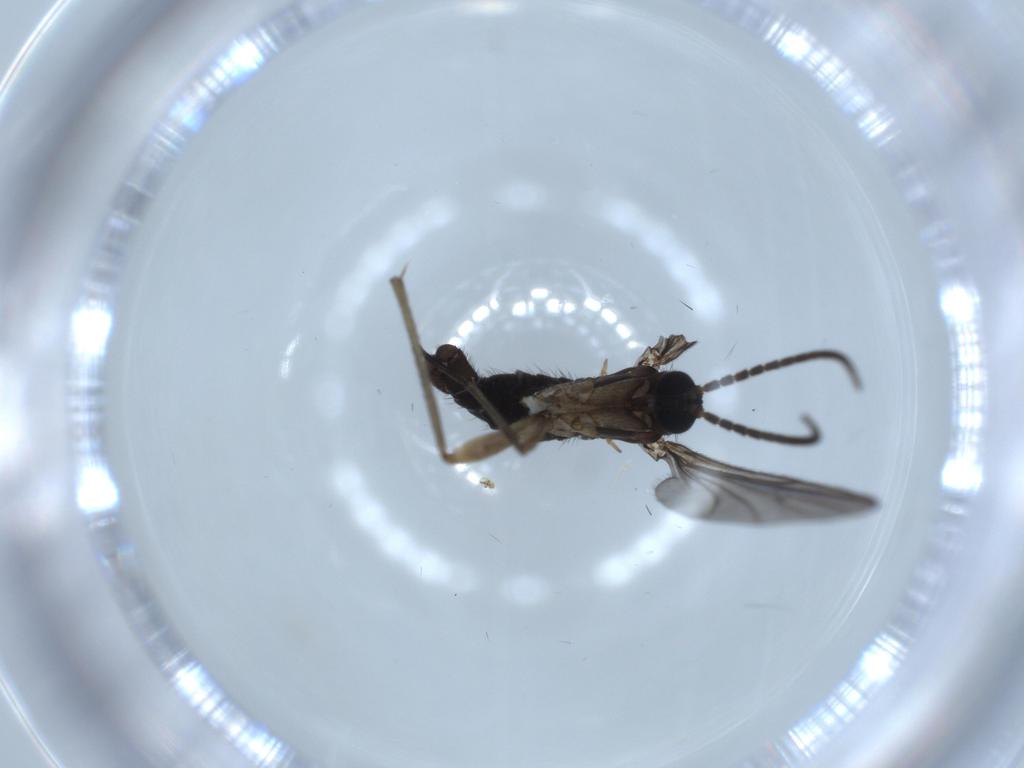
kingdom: Animalia
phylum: Arthropoda
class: Insecta
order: Diptera
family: Sciaridae
